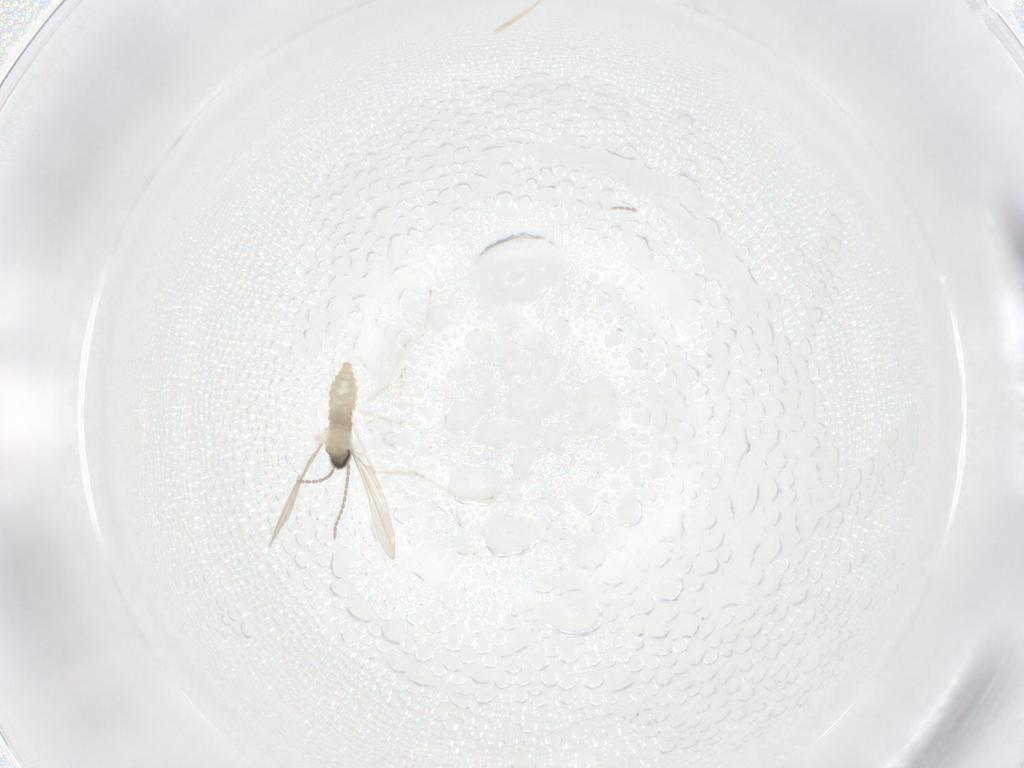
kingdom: Animalia
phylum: Arthropoda
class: Insecta
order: Diptera
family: Cecidomyiidae
